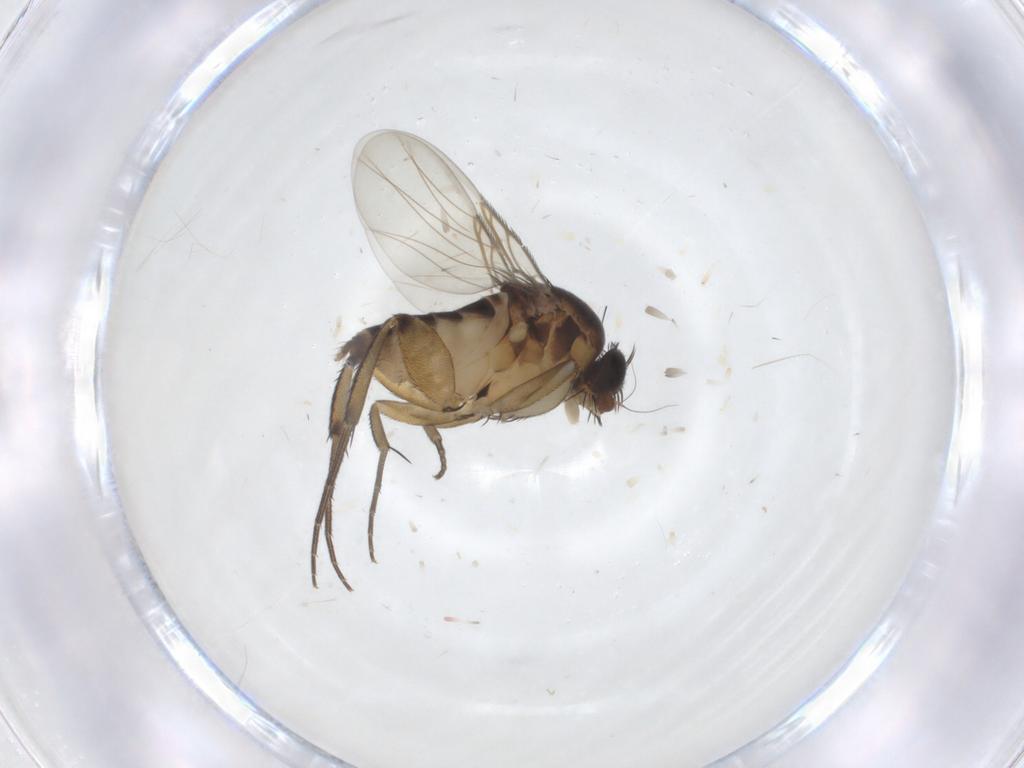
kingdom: Animalia
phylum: Arthropoda
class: Insecta
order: Diptera
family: Phoridae
